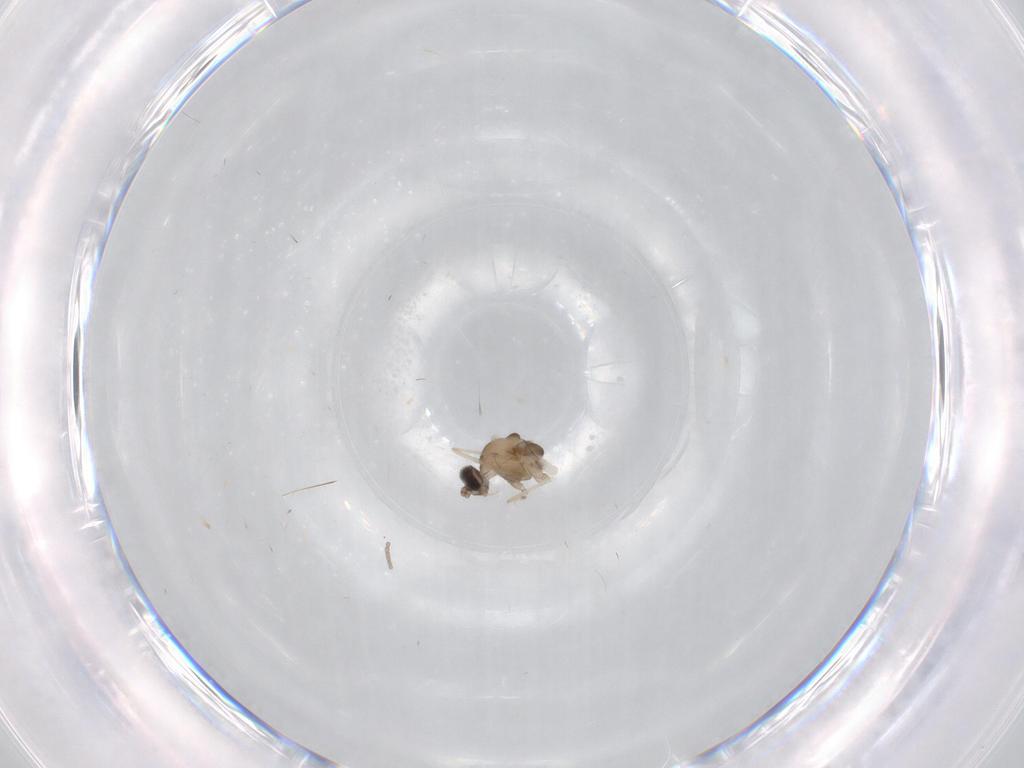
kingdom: Animalia
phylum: Arthropoda
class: Insecta
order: Diptera
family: Cecidomyiidae
